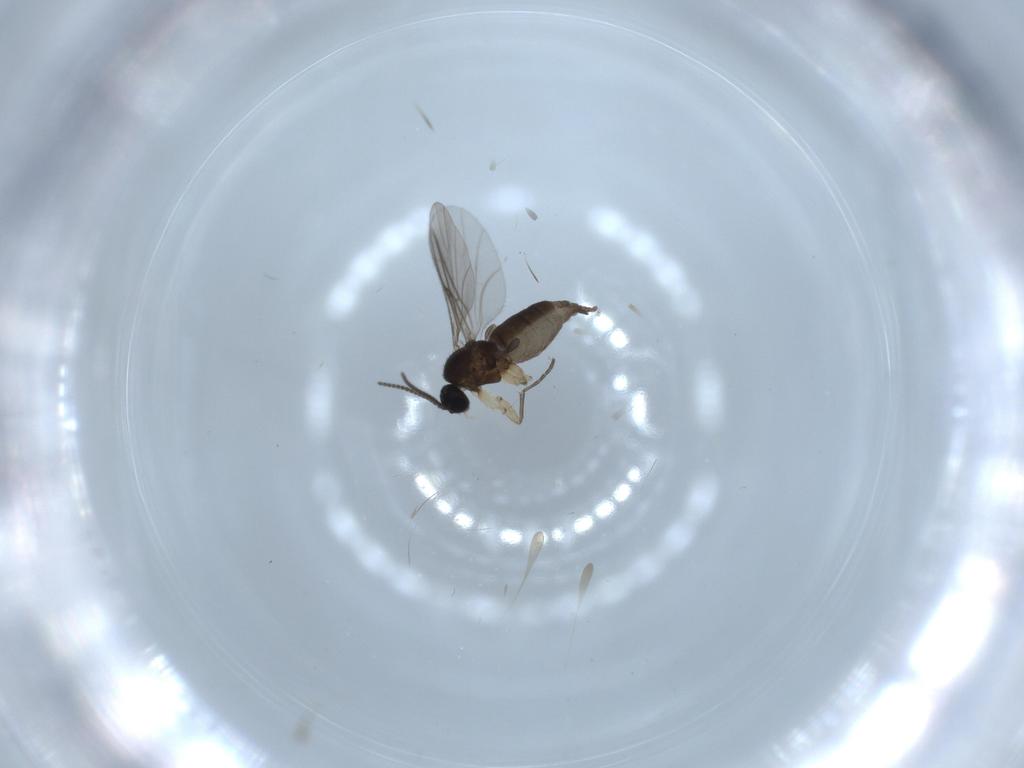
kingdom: Animalia
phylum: Arthropoda
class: Insecta
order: Diptera
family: Sciaridae
